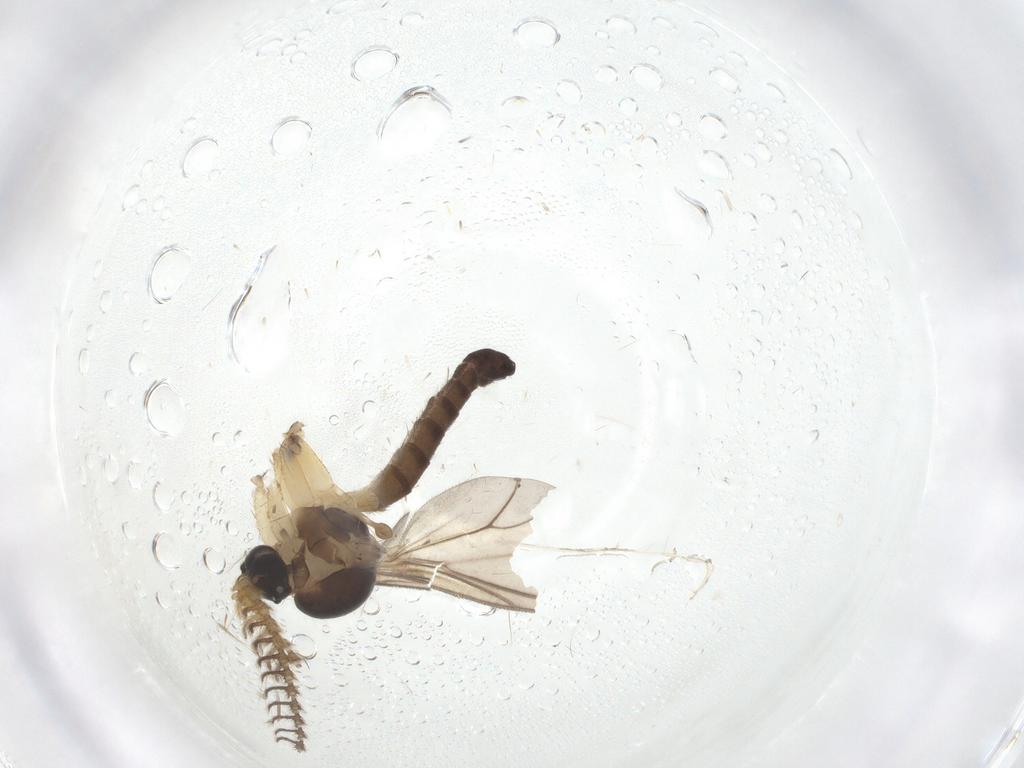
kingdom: Animalia
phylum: Arthropoda
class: Insecta
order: Diptera
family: Mycetophilidae
